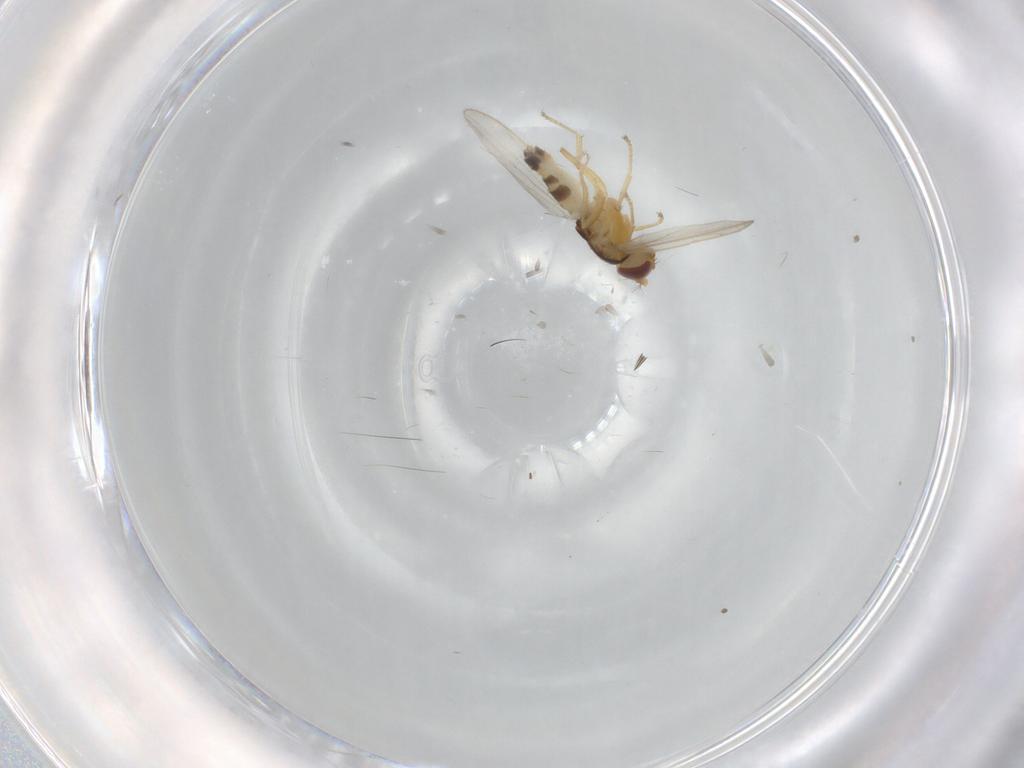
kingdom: Animalia
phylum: Arthropoda
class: Insecta
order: Diptera
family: Periscelididae
